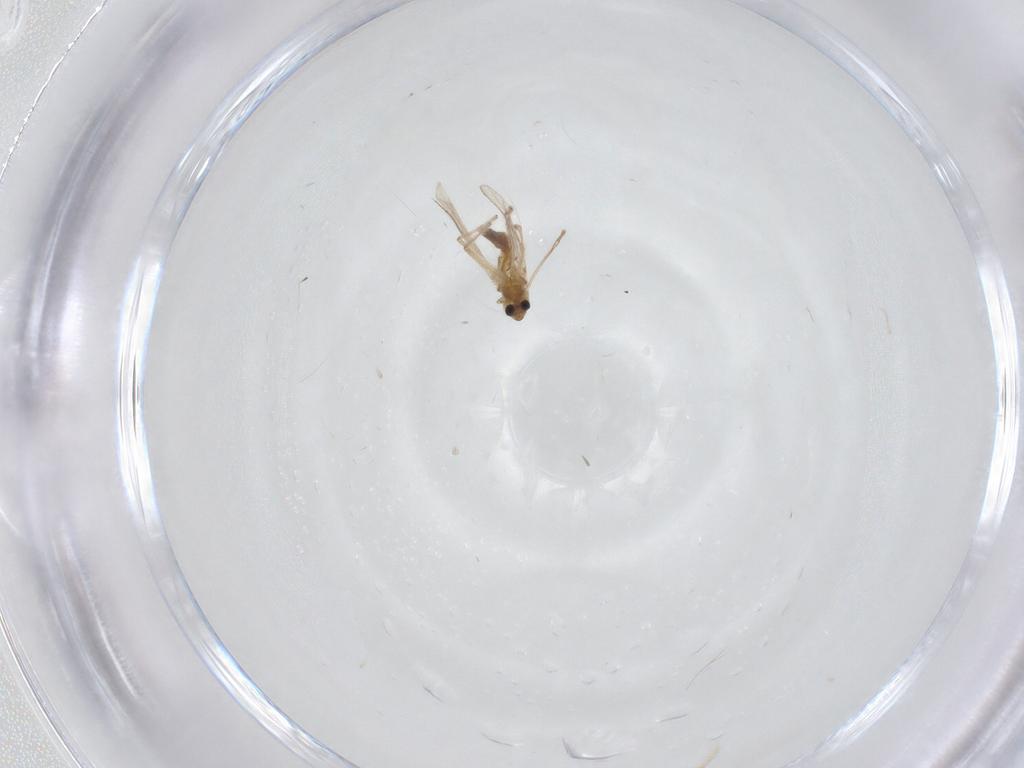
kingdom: Animalia
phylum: Arthropoda
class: Insecta
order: Diptera
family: Chironomidae
